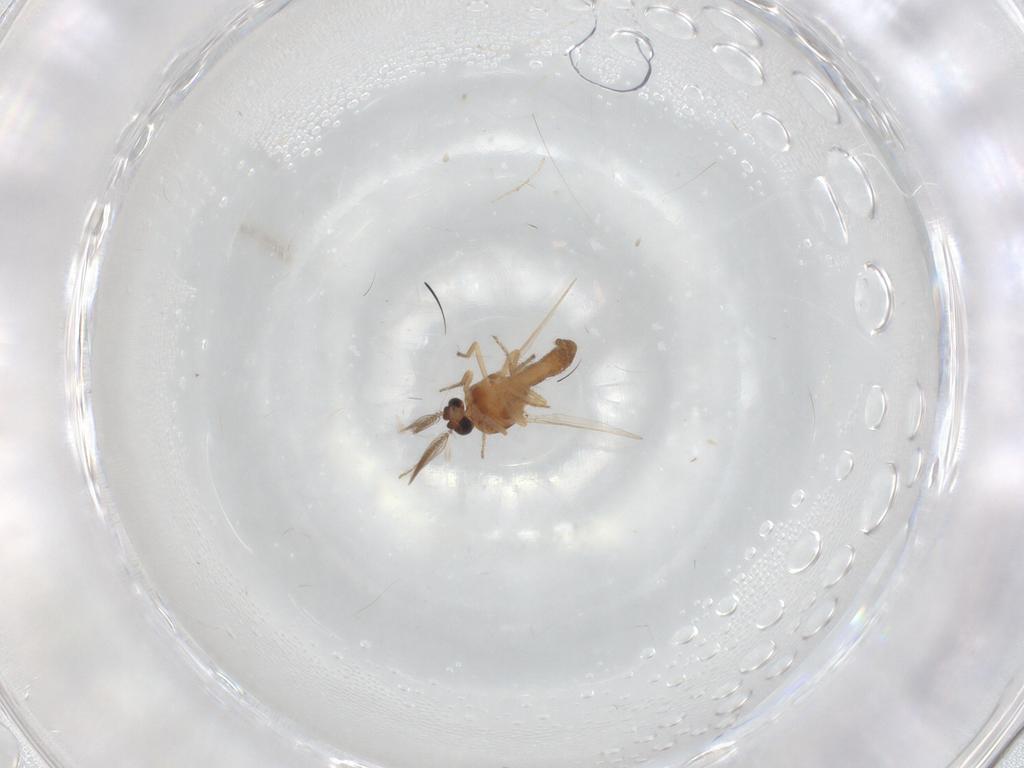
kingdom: Animalia
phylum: Arthropoda
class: Insecta
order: Diptera
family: Ceratopogonidae
